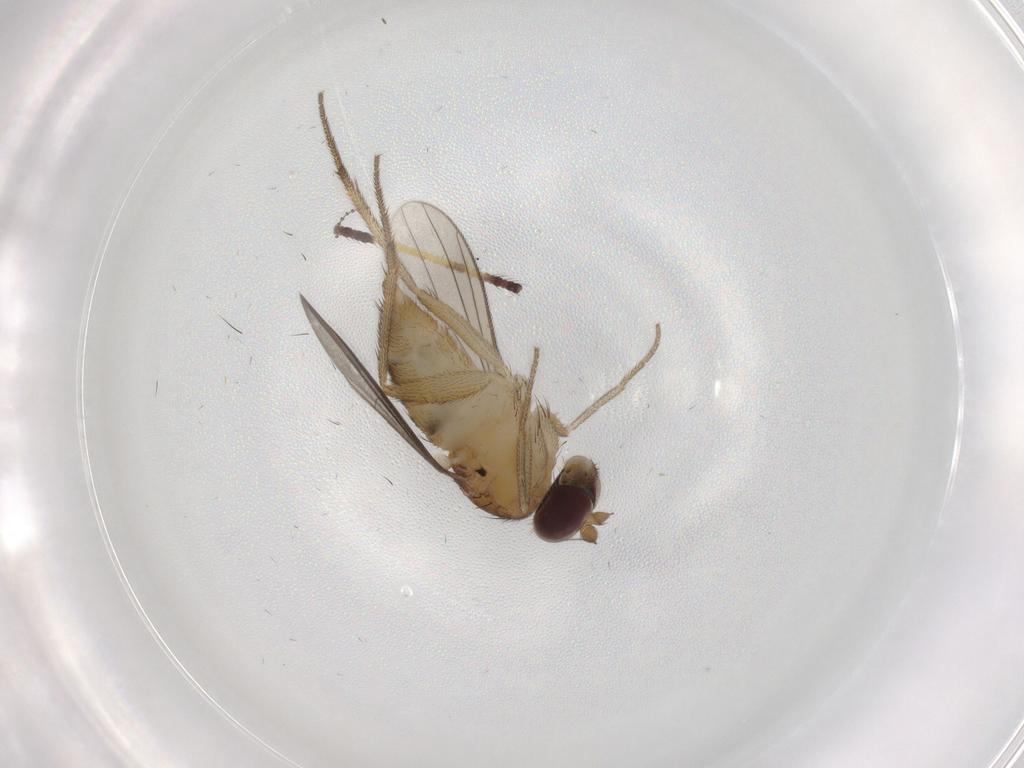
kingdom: Animalia
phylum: Arthropoda
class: Insecta
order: Diptera
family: Dolichopodidae
